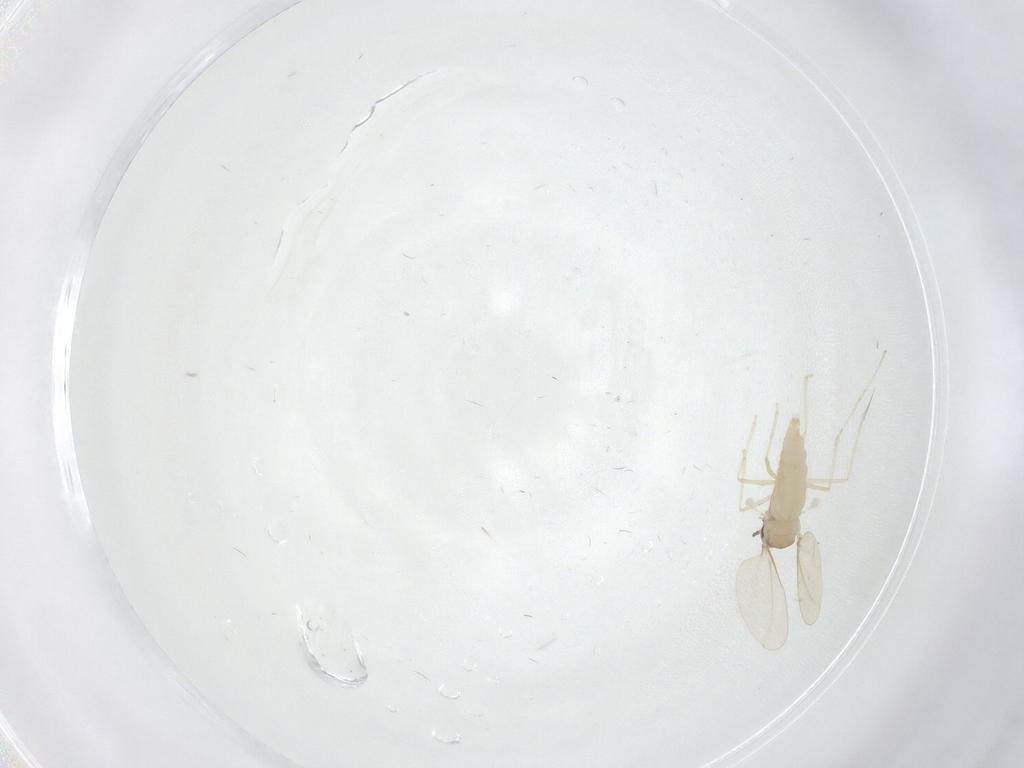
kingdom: Animalia
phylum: Arthropoda
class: Insecta
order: Diptera
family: Cecidomyiidae
